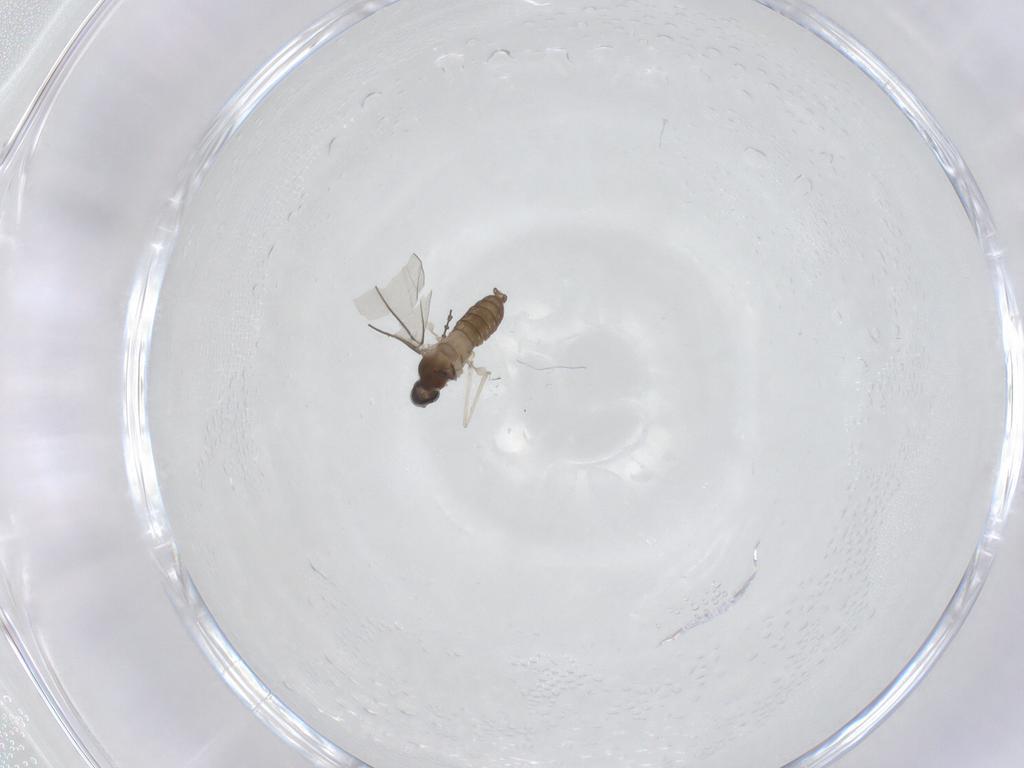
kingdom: Animalia
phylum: Arthropoda
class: Insecta
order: Diptera
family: Cecidomyiidae
